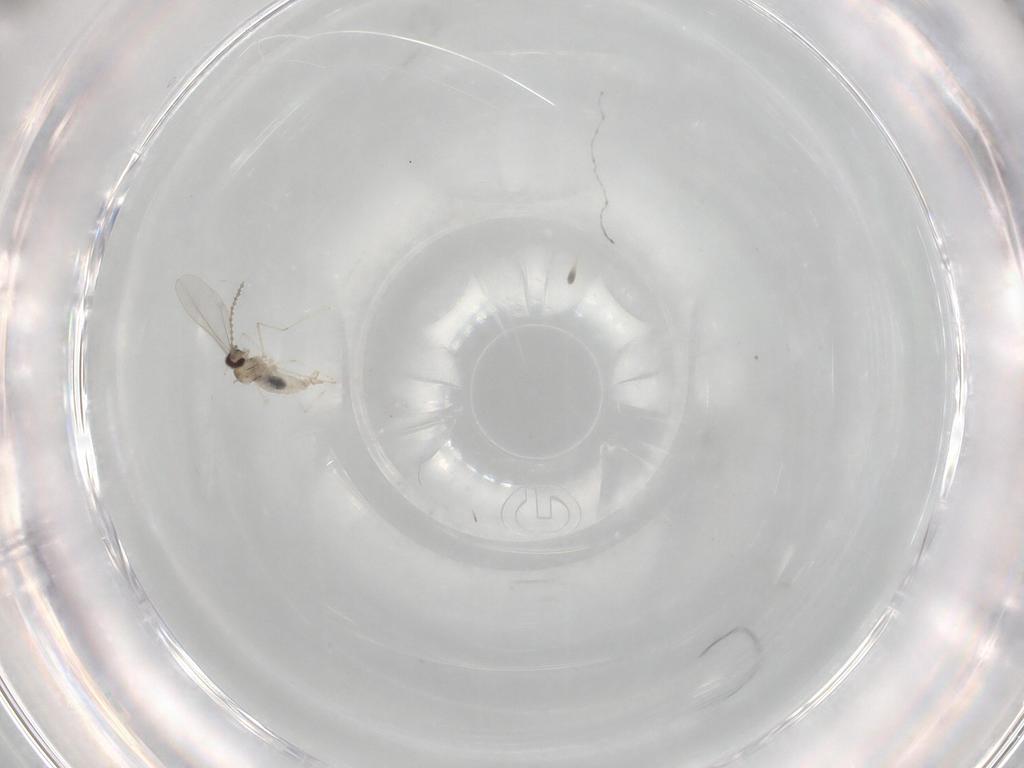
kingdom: Animalia
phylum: Arthropoda
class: Insecta
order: Diptera
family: Cecidomyiidae
